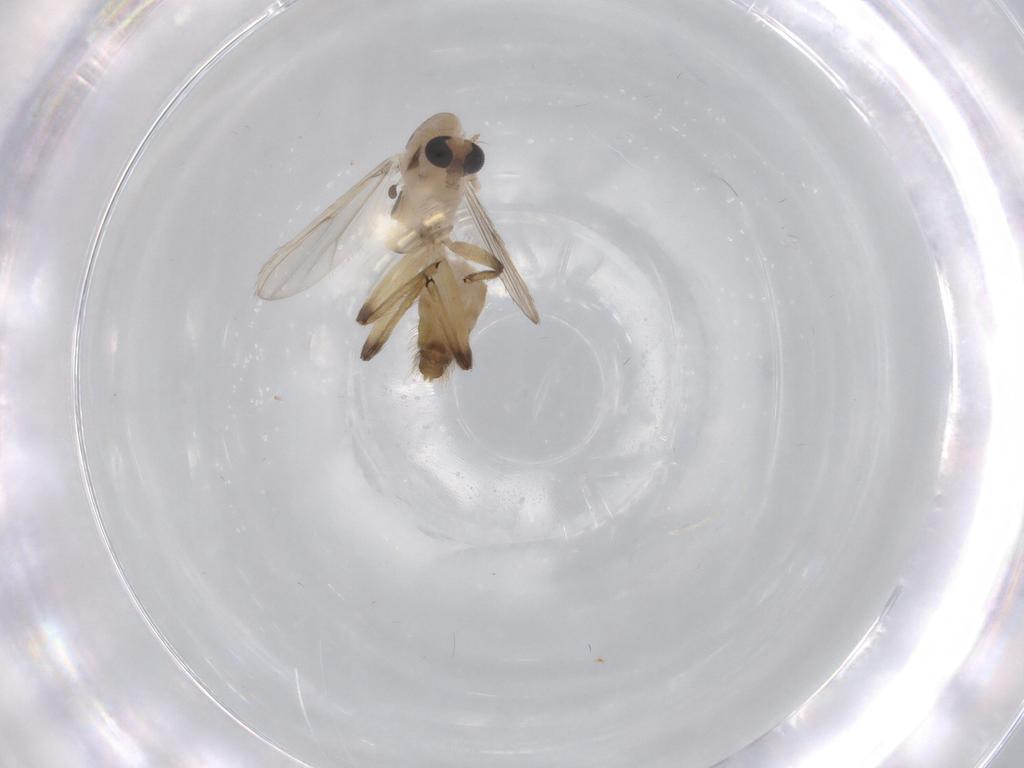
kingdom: Animalia
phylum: Arthropoda
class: Insecta
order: Diptera
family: Chironomidae
